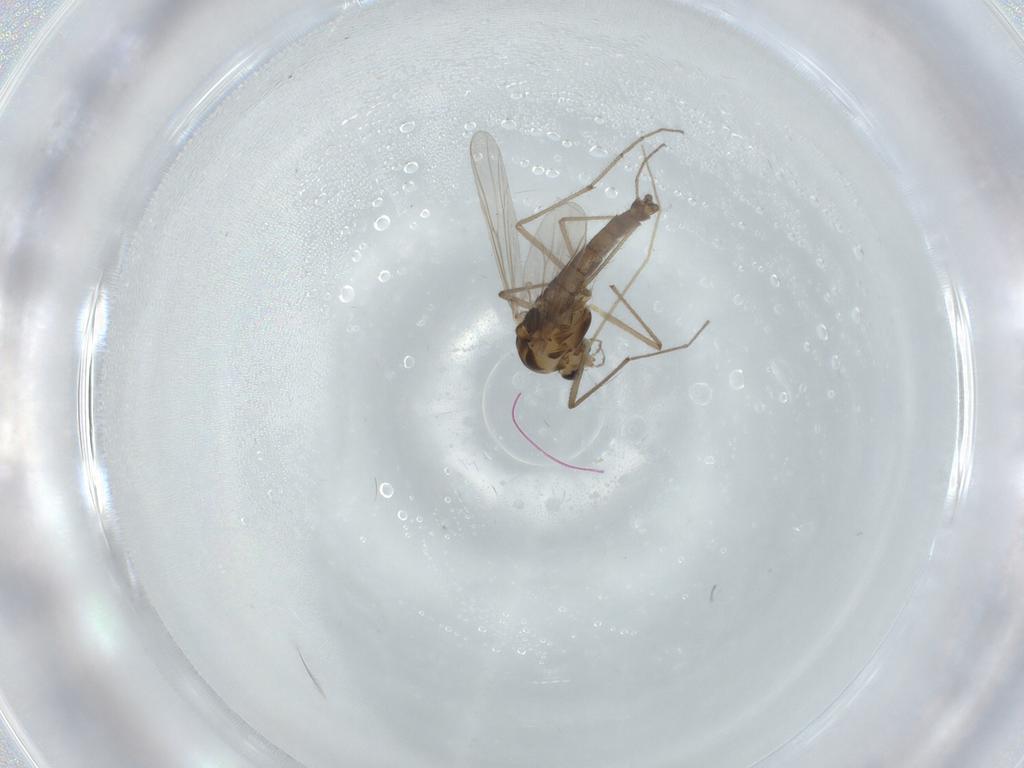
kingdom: Animalia
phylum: Arthropoda
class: Insecta
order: Diptera
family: Chironomidae
